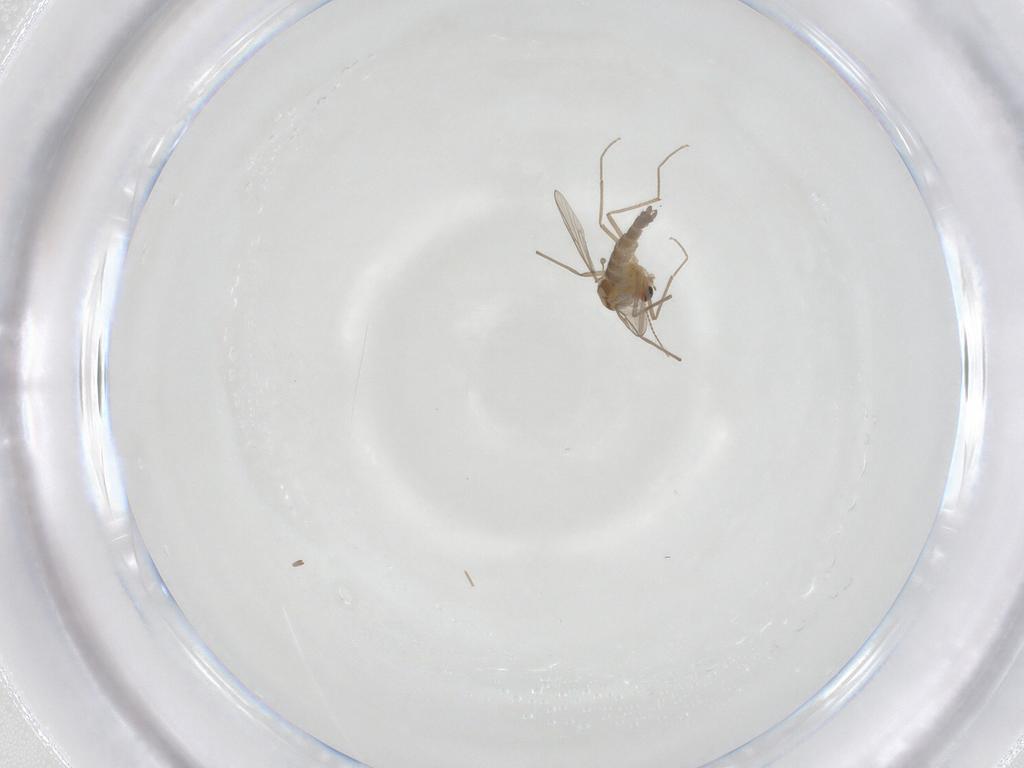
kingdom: Animalia
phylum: Arthropoda
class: Insecta
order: Diptera
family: Chironomidae
